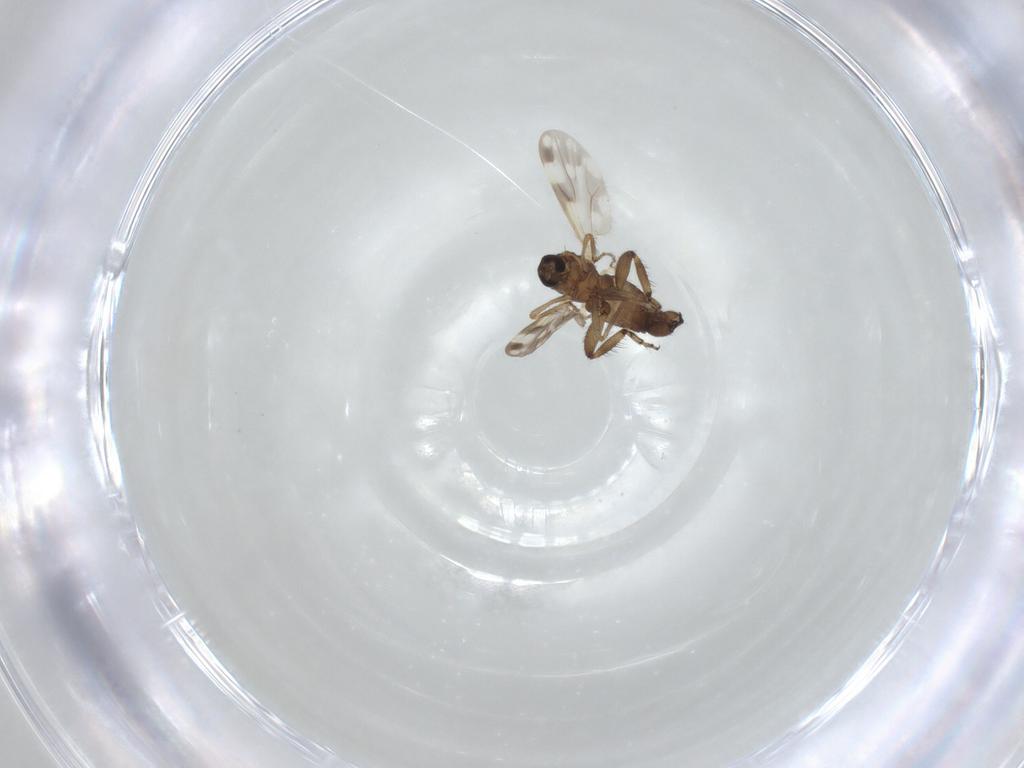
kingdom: Animalia
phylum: Arthropoda
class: Insecta
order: Diptera
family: Ceratopogonidae
